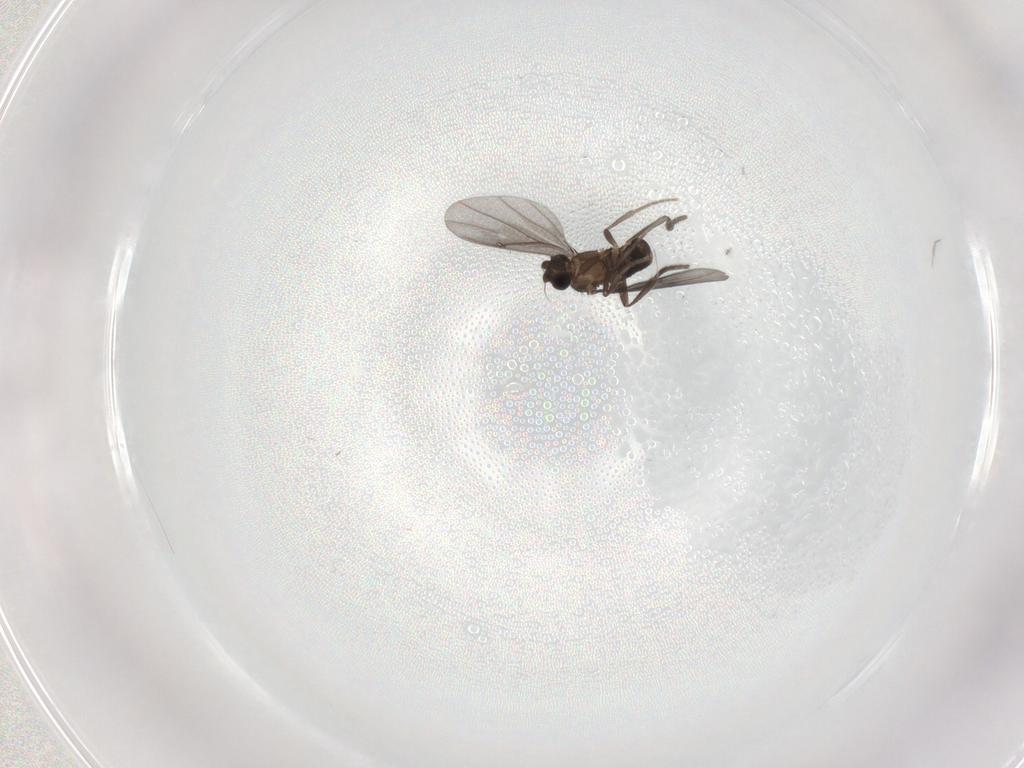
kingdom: Animalia
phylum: Arthropoda
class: Insecta
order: Diptera
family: Phoridae
